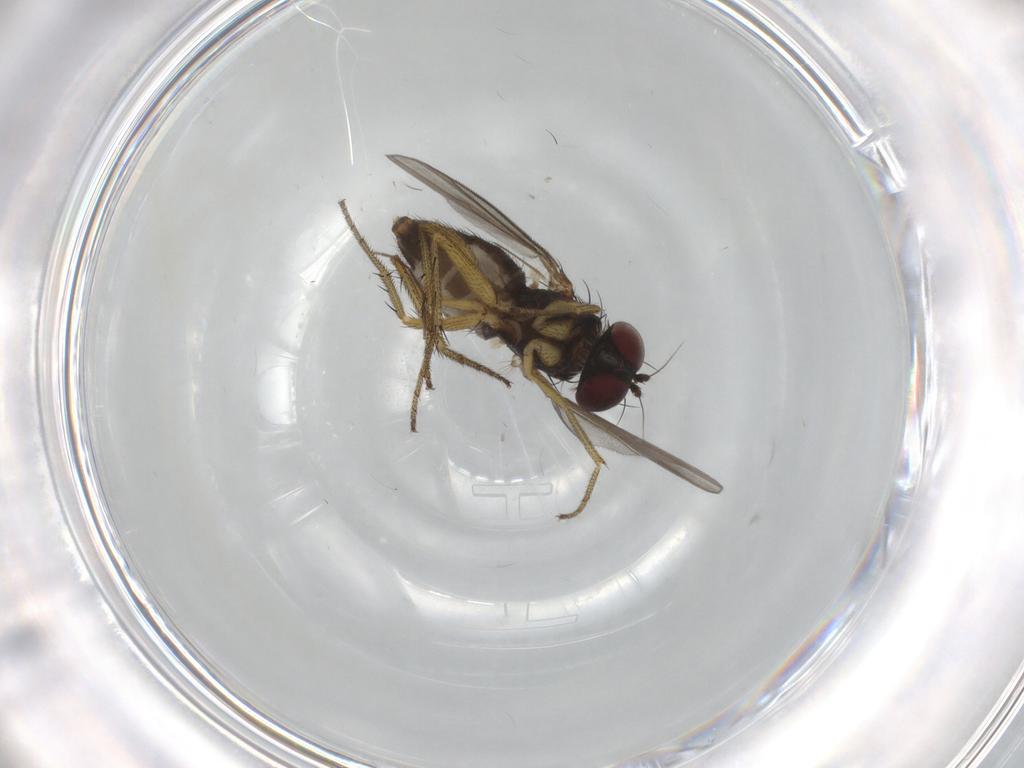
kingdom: Animalia
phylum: Arthropoda
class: Insecta
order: Diptera
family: Dolichopodidae
